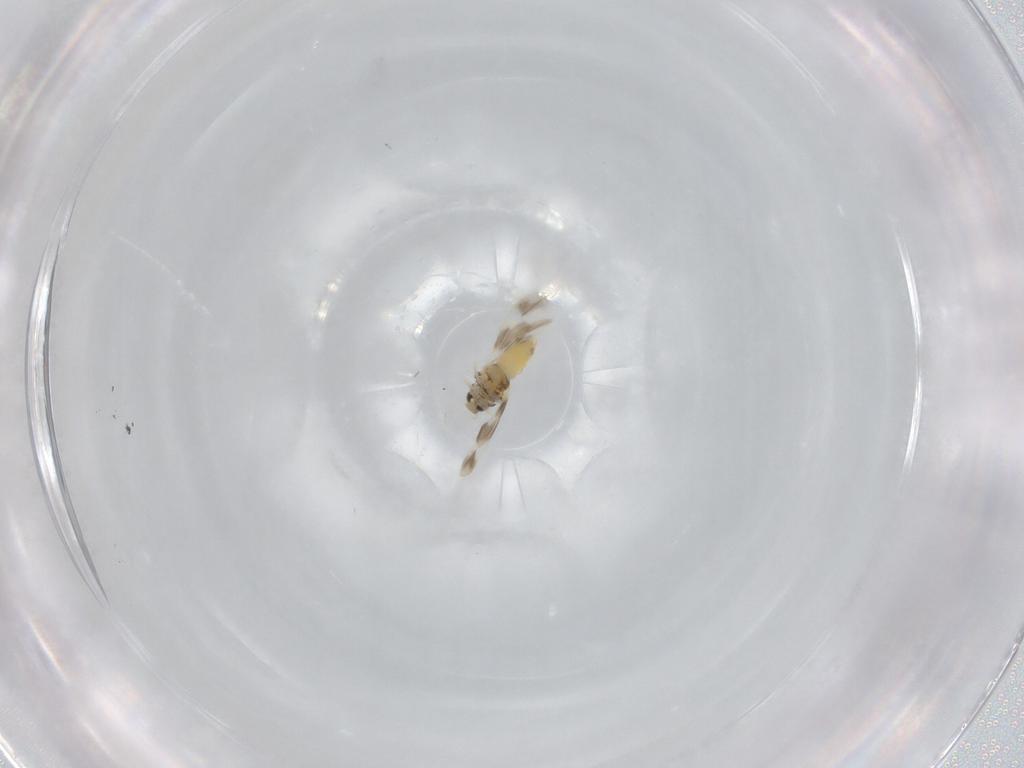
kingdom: Animalia
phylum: Arthropoda
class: Insecta
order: Hemiptera
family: Aleyrodidae
